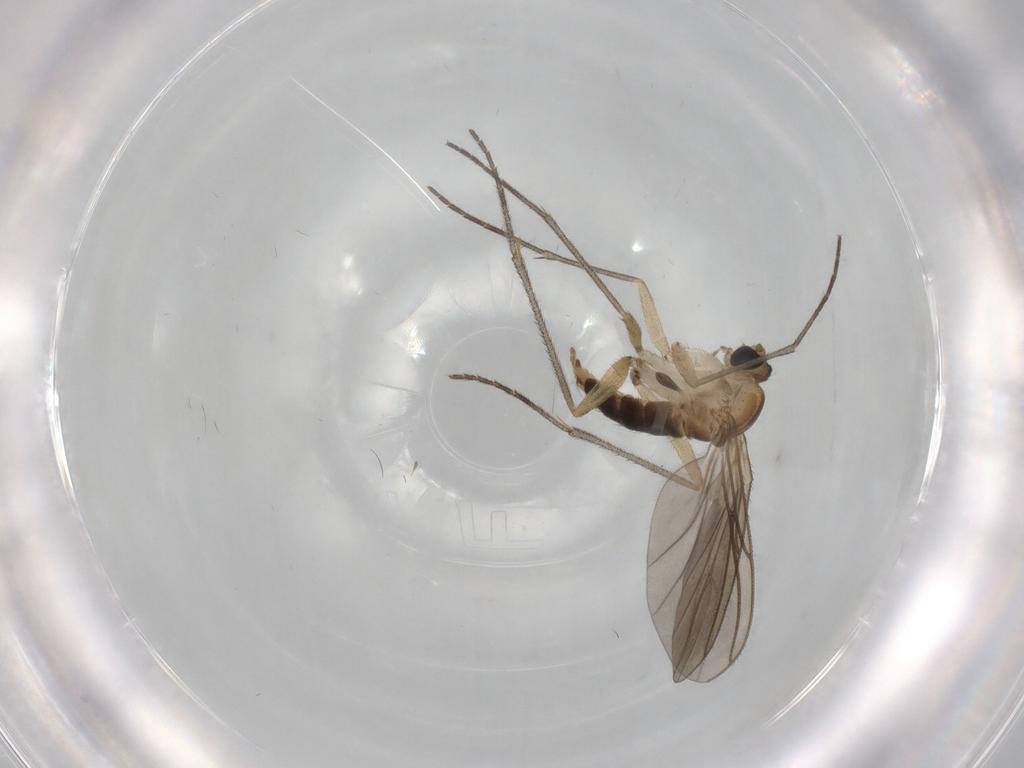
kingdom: Animalia
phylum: Arthropoda
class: Insecta
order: Diptera
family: Sciaridae
